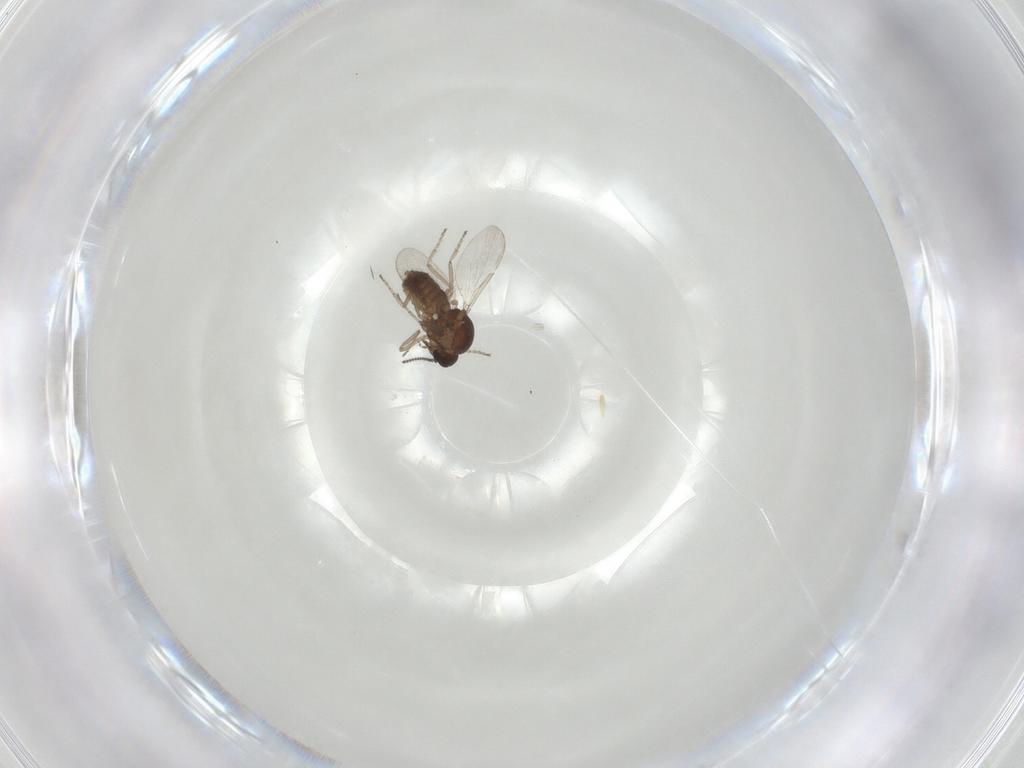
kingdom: Animalia
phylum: Arthropoda
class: Insecta
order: Diptera
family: Ceratopogonidae
